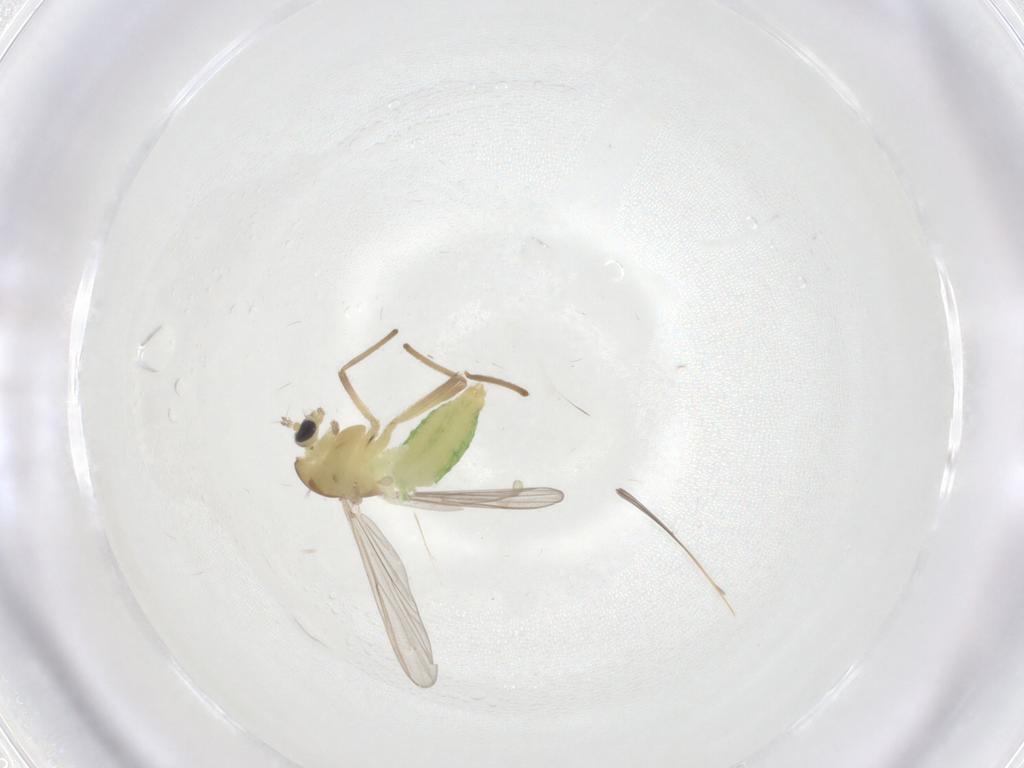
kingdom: Animalia
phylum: Arthropoda
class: Insecta
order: Diptera
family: Chironomidae
